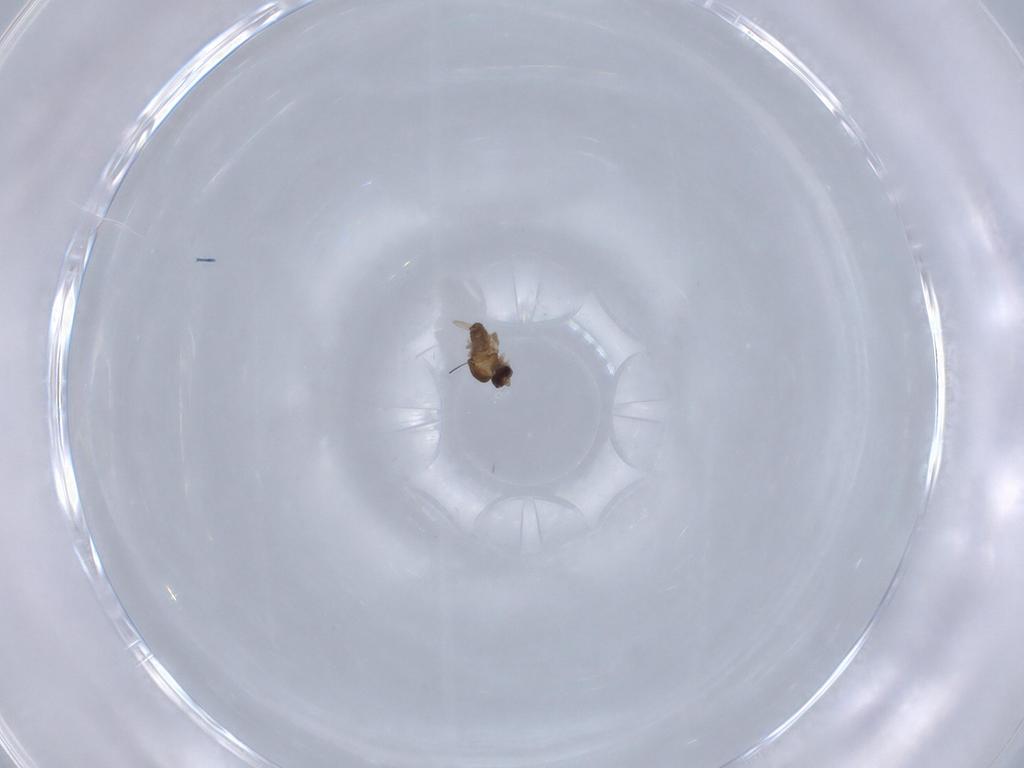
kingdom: Animalia
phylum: Arthropoda
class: Insecta
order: Diptera
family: Cecidomyiidae
